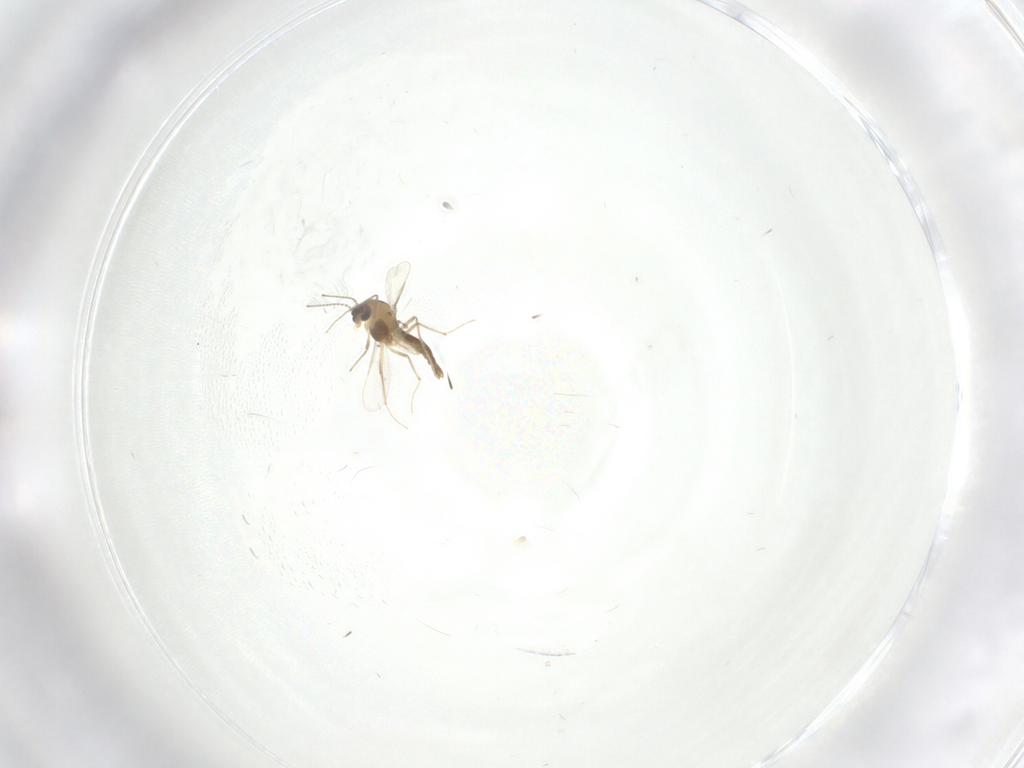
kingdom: Animalia
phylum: Arthropoda
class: Insecta
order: Diptera
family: Chironomidae
